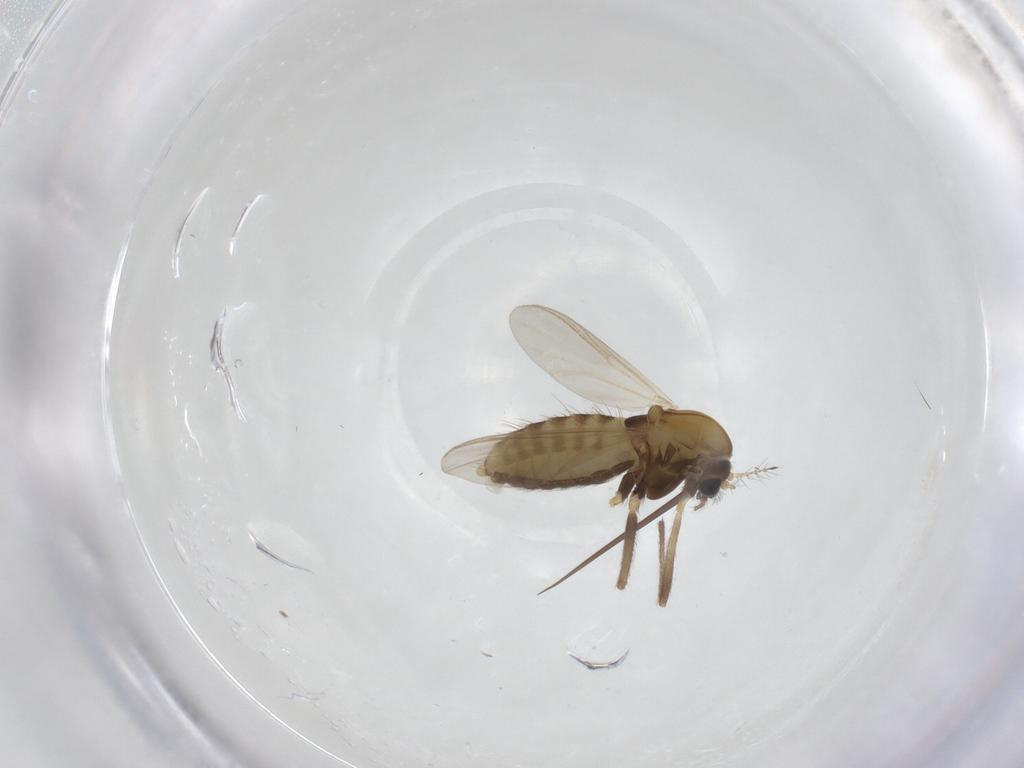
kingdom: Animalia
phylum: Arthropoda
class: Insecta
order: Diptera
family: Chironomidae
